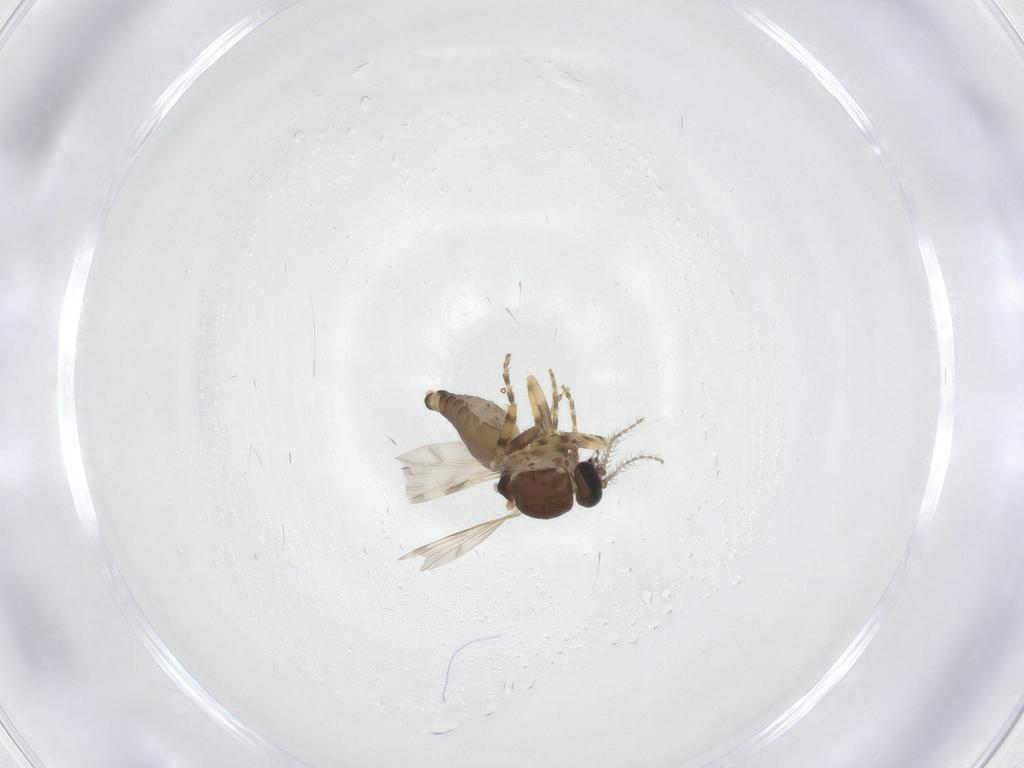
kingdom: Animalia
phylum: Arthropoda
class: Insecta
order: Diptera
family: Ceratopogonidae
